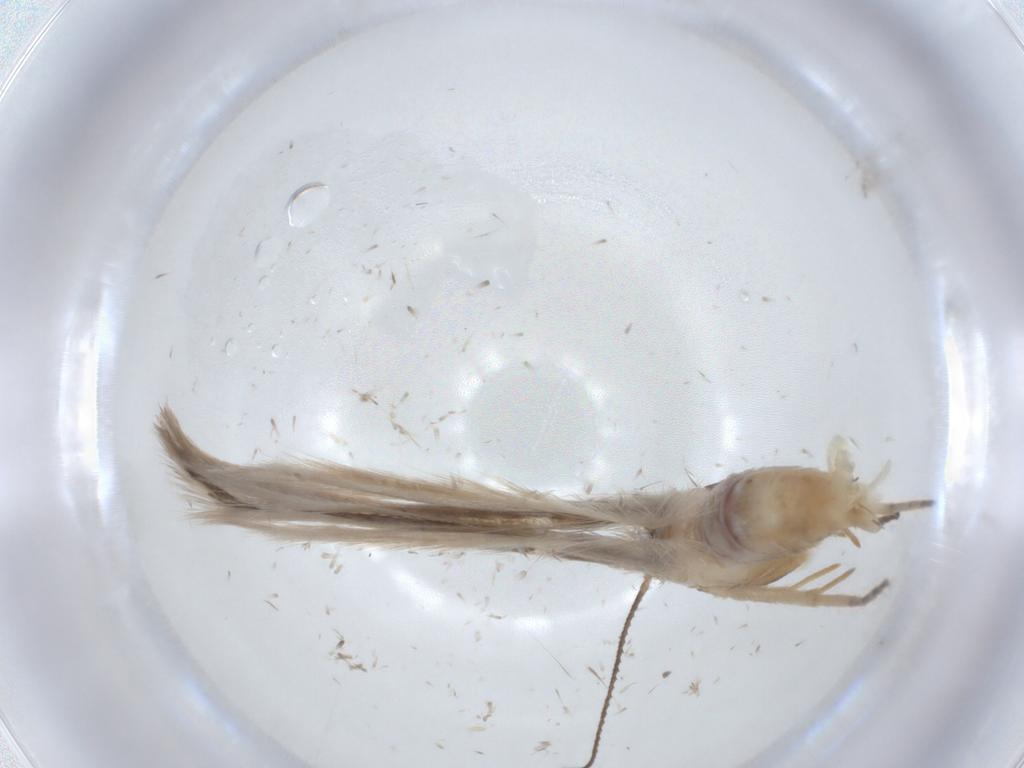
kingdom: Animalia
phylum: Arthropoda
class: Insecta
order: Lepidoptera
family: Gelechiidae
